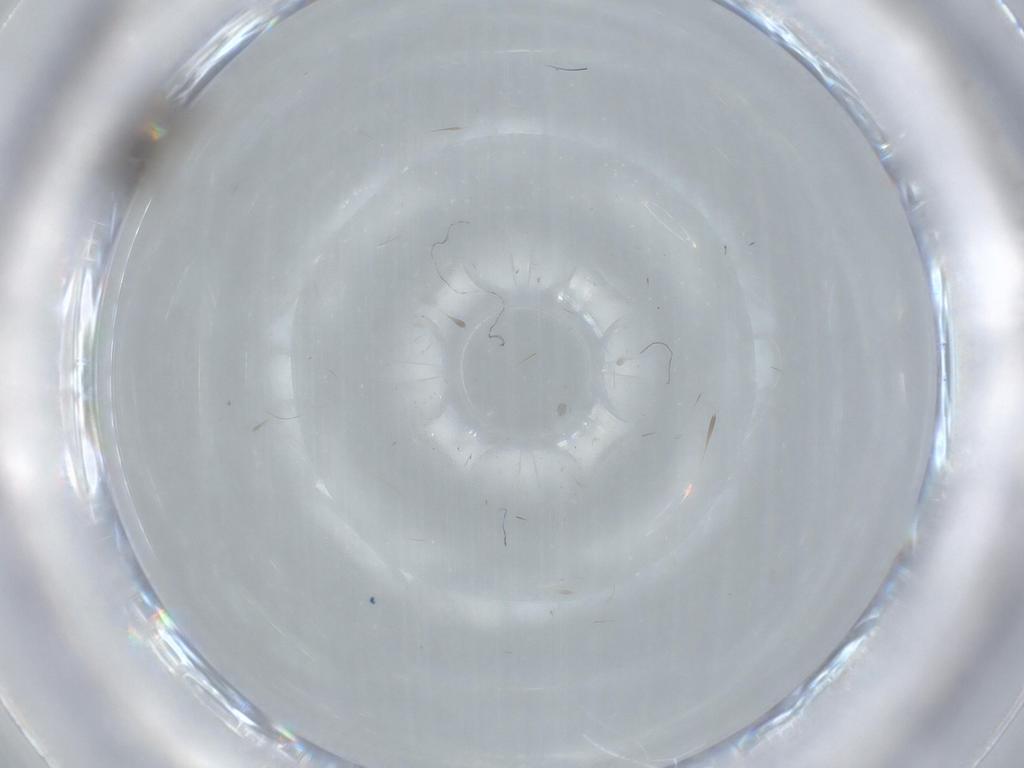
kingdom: Animalia
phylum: Arthropoda
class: Insecta
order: Diptera
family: Phoridae
